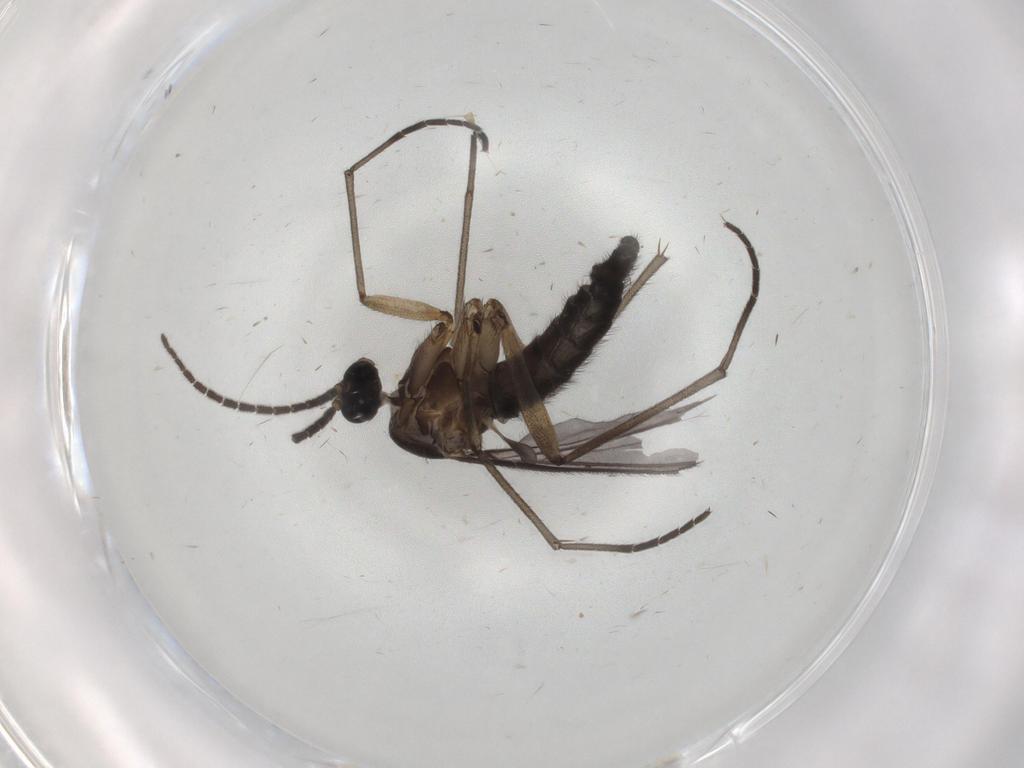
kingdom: Animalia
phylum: Arthropoda
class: Insecta
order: Diptera
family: Sciaridae
